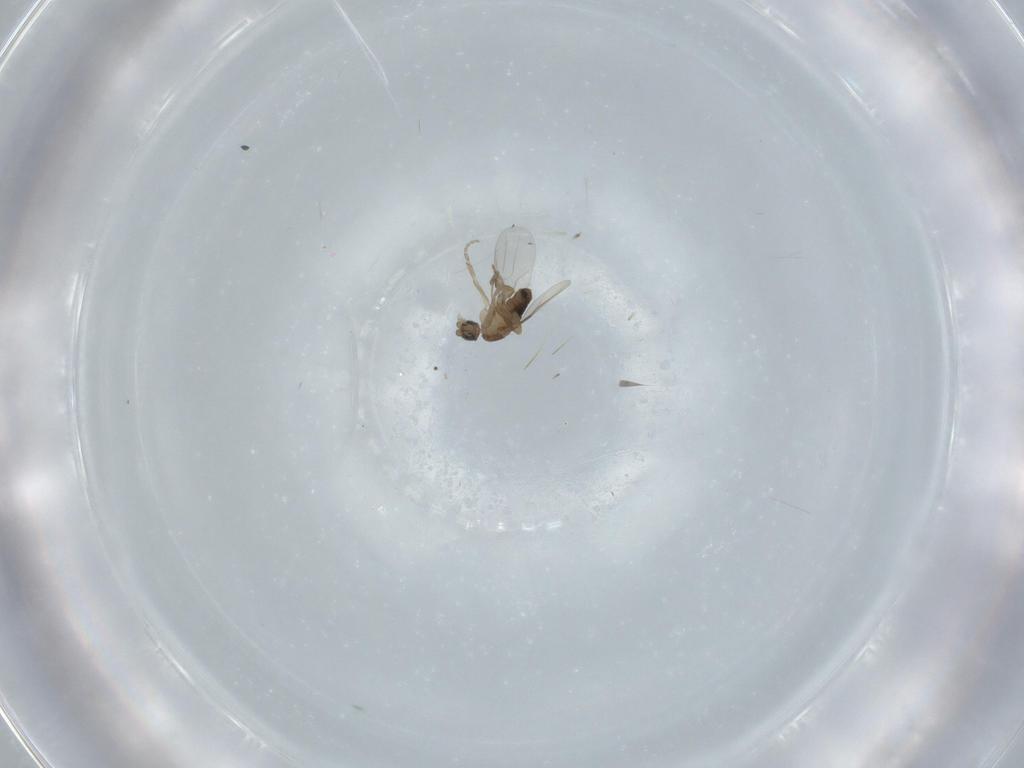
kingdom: Animalia
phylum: Arthropoda
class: Insecta
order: Diptera
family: Phoridae
